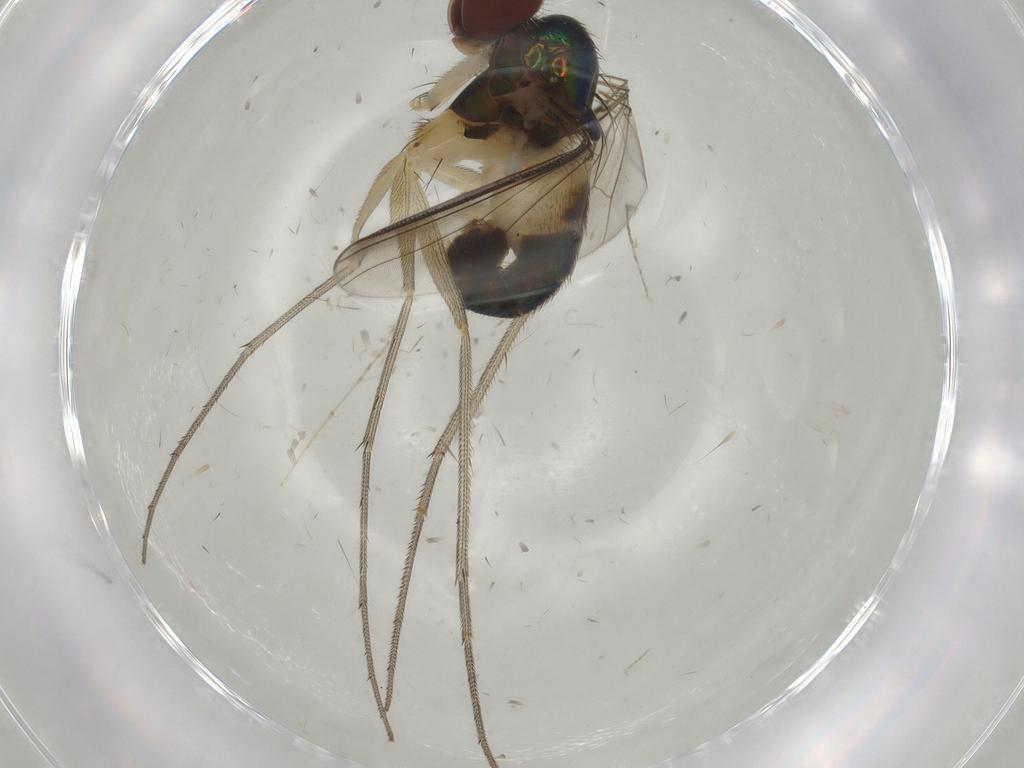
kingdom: Animalia
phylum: Arthropoda
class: Insecta
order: Diptera
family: Dolichopodidae
